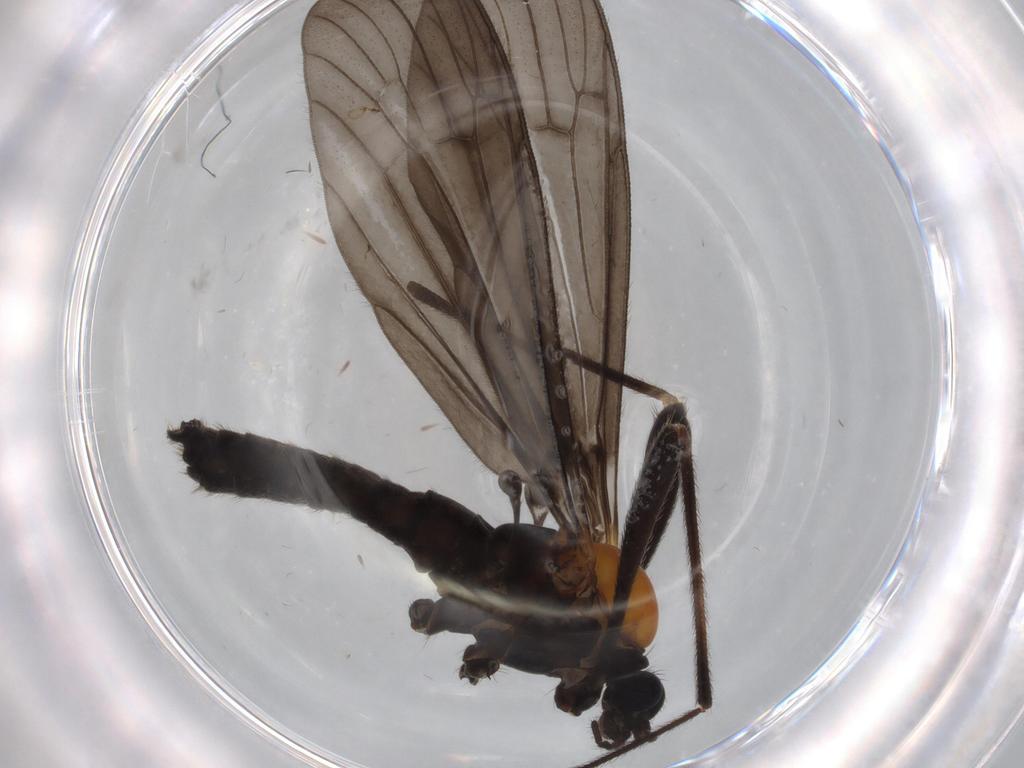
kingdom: Animalia
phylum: Arthropoda
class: Insecta
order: Diptera
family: Limoniidae
